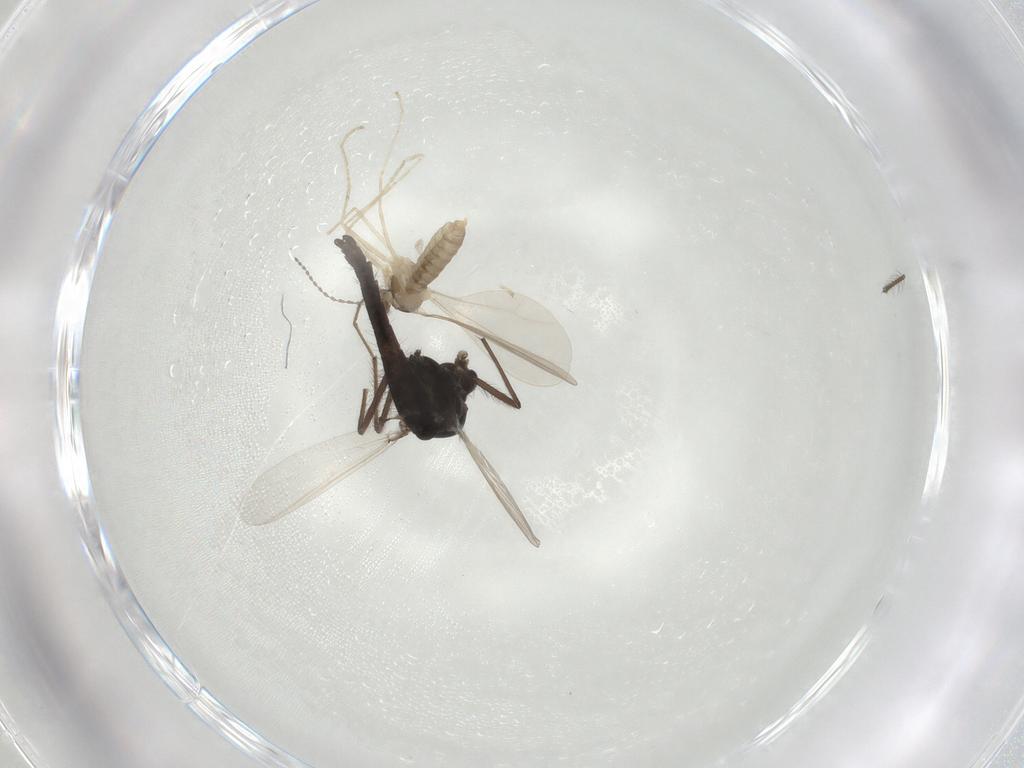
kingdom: Animalia
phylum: Arthropoda
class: Insecta
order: Diptera
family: Chironomidae
